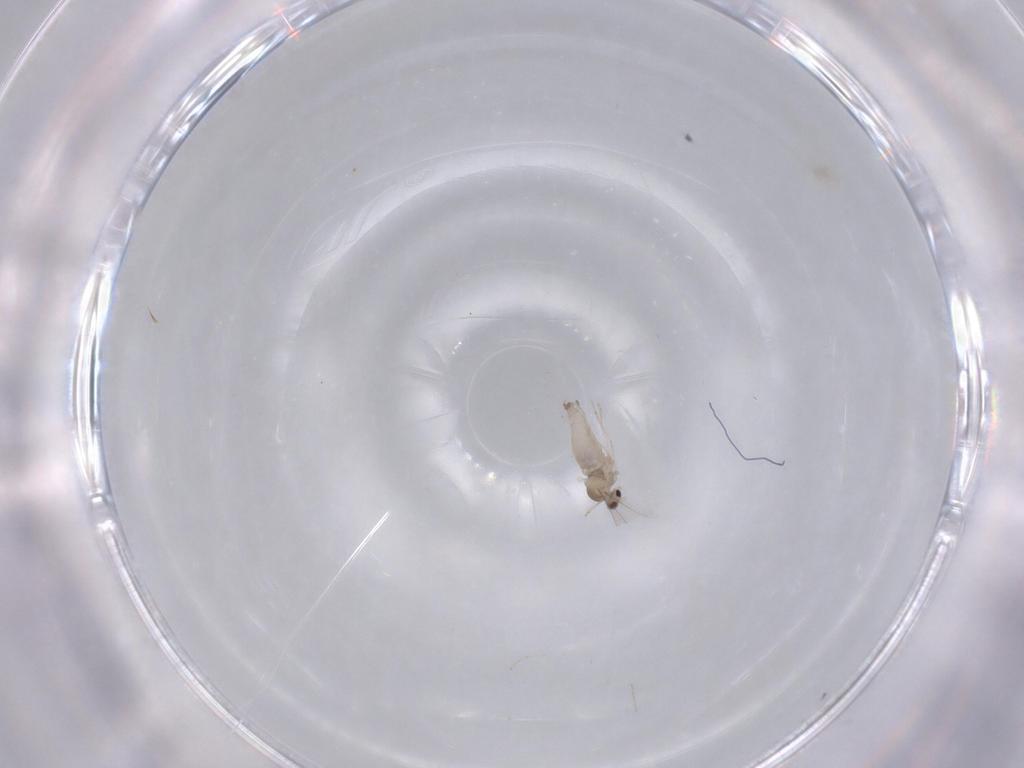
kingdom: Animalia
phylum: Arthropoda
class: Insecta
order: Diptera
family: Cecidomyiidae
